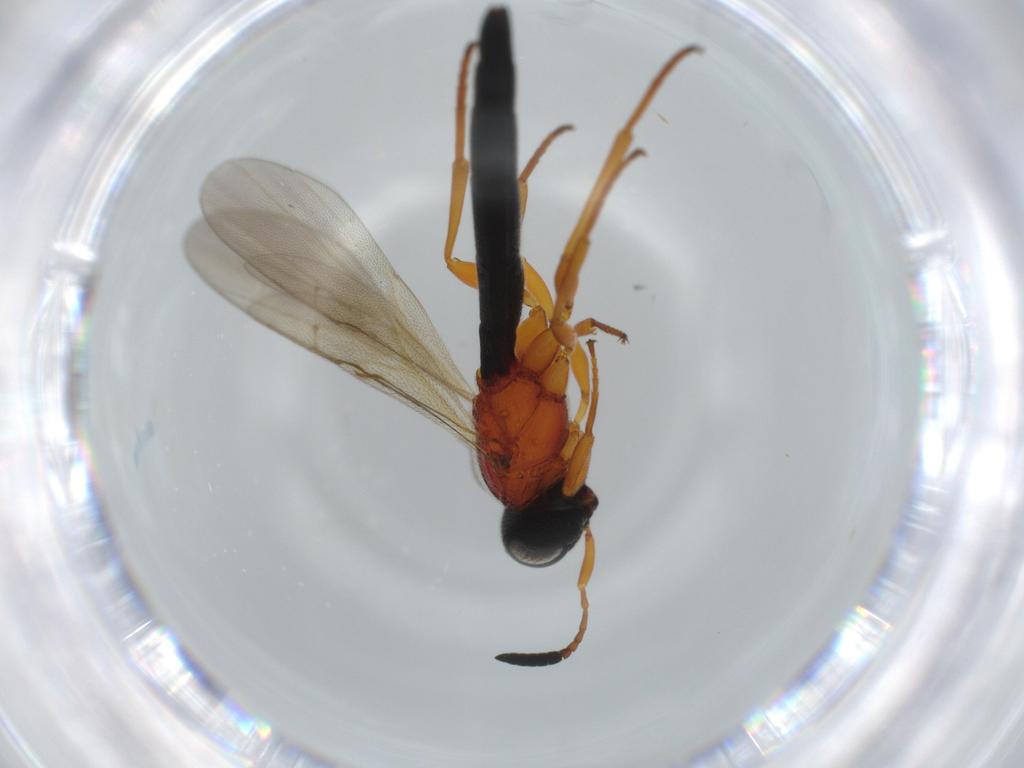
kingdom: Animalia
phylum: Arthropoda
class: Insecta
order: Hymenoptera
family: Scelionidae
